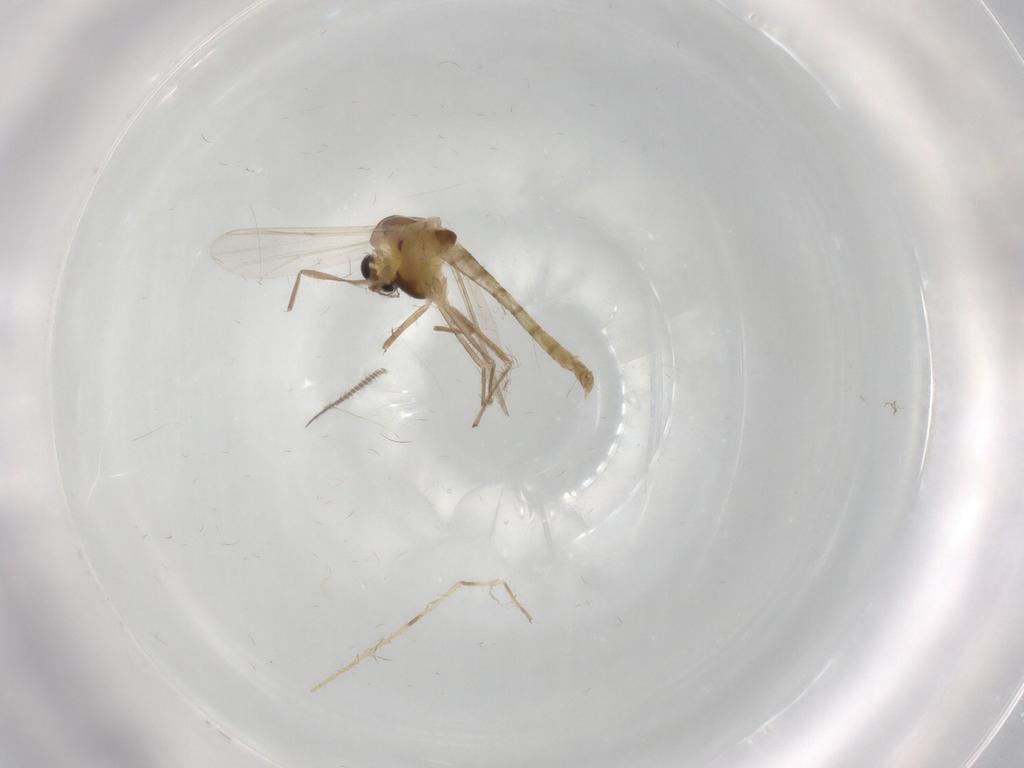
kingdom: Animalia
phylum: Arthropoda
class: Insecta
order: Diptera
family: Chironomidae
